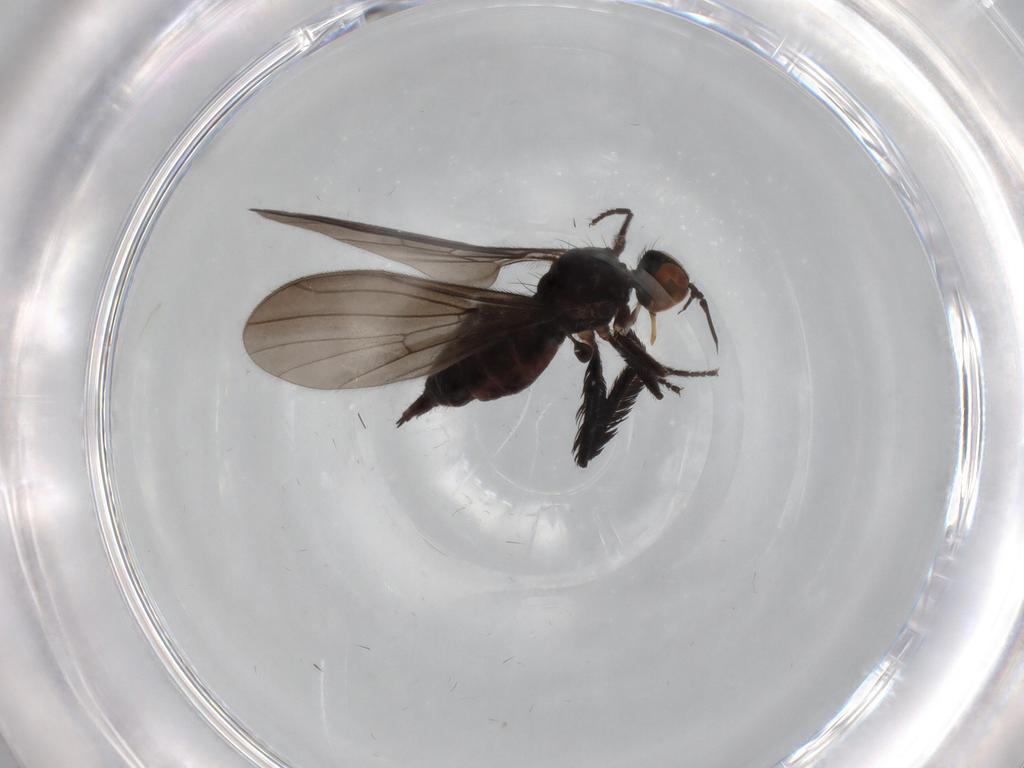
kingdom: Animalia
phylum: Arthropoda
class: Insecta
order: Diptera
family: Empididae
